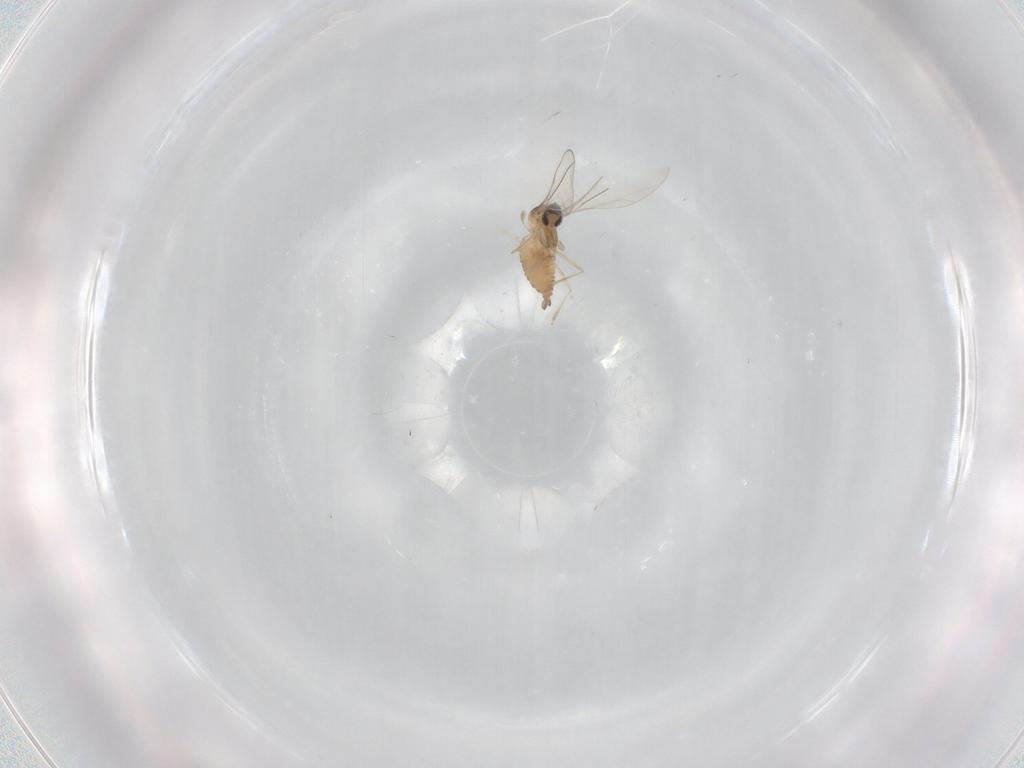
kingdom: Animalia
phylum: Arthropoda
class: Insecta
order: Diptera
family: Cecidomyiidae
